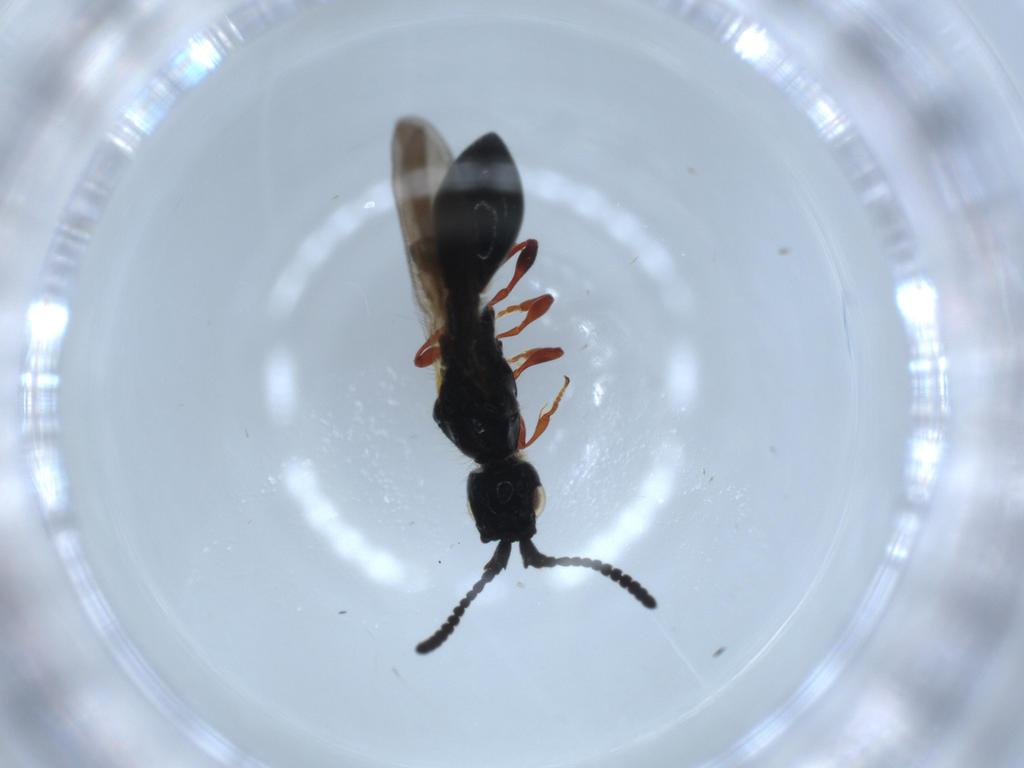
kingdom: Animalia
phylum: Arthropoda
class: Insecta
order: Hymenoptera
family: Diapriidae
